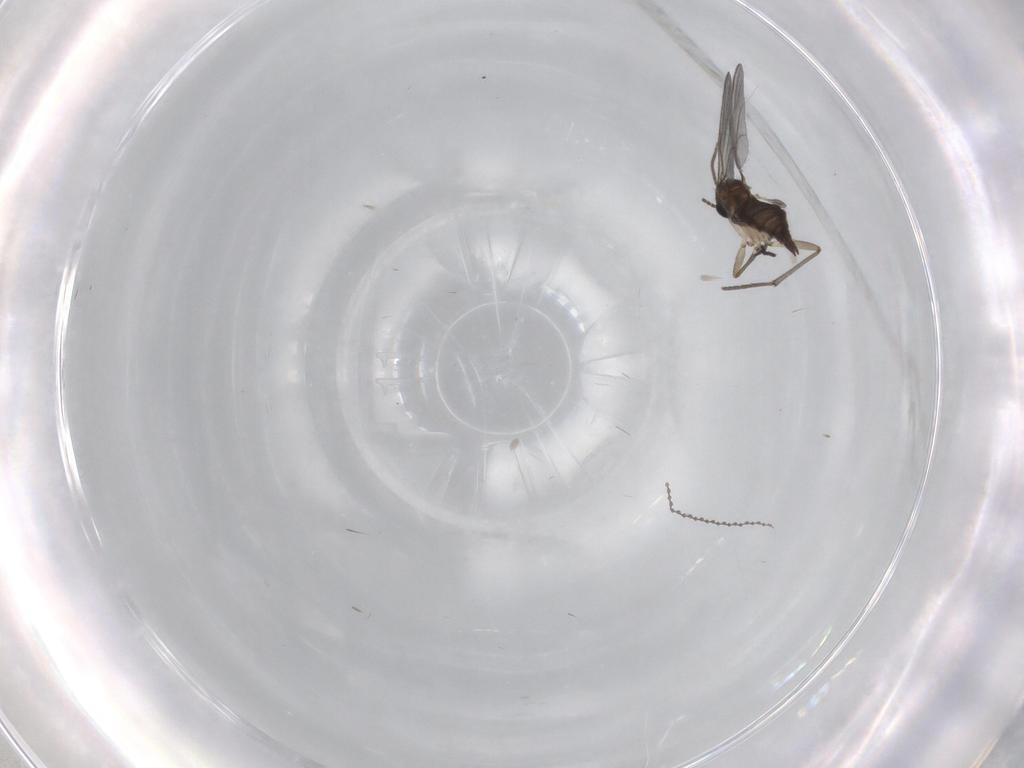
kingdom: Animalia
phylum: Arthropoda
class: Insecta
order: Diptera
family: Sciaridae
